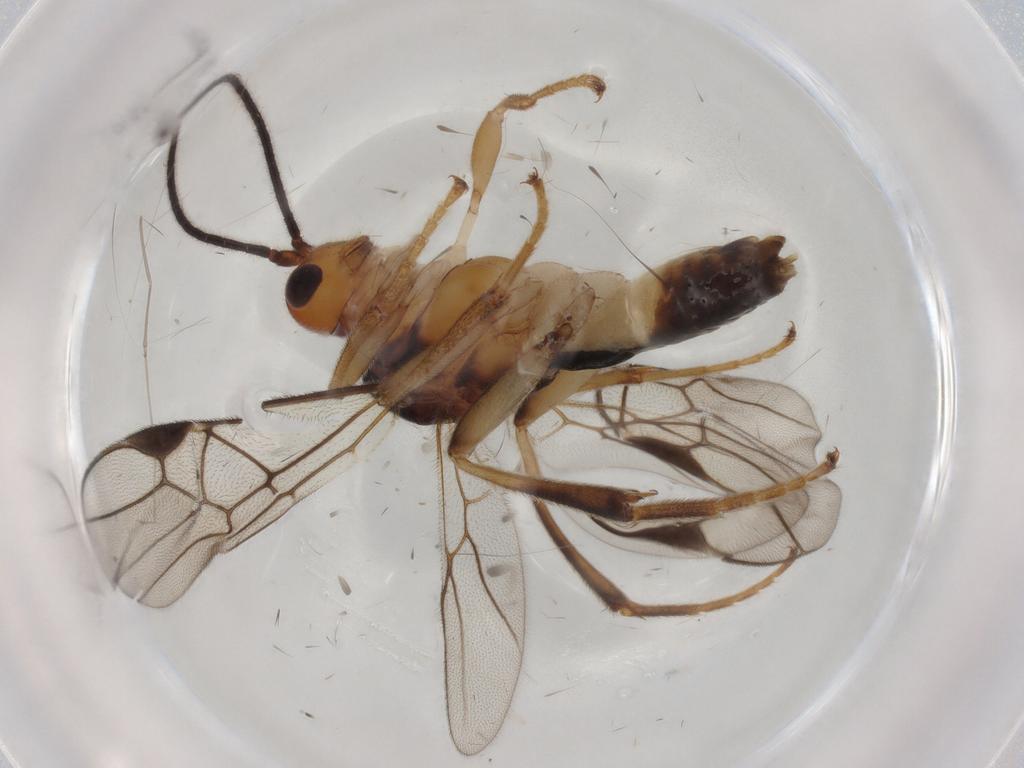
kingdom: Animalia
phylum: Arthropoda
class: Insecta
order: Hymenoptera
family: Braconidae
